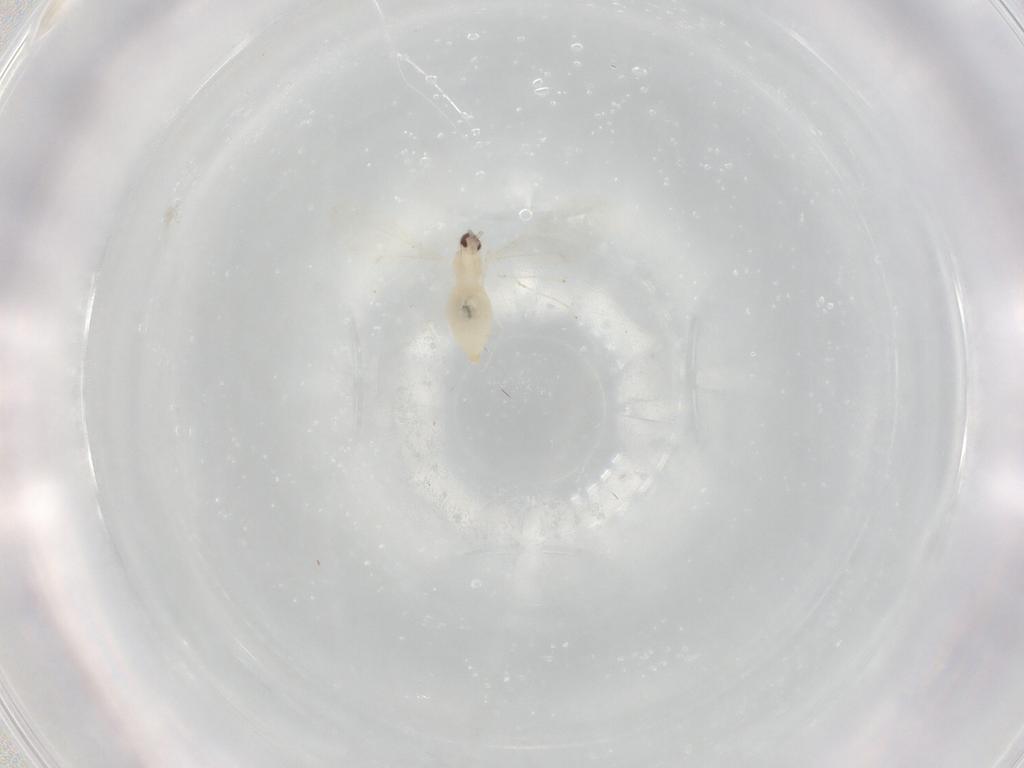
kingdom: Animalia
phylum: Arthropoda
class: Insecta
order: Diptera
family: Cecidomyiidae
